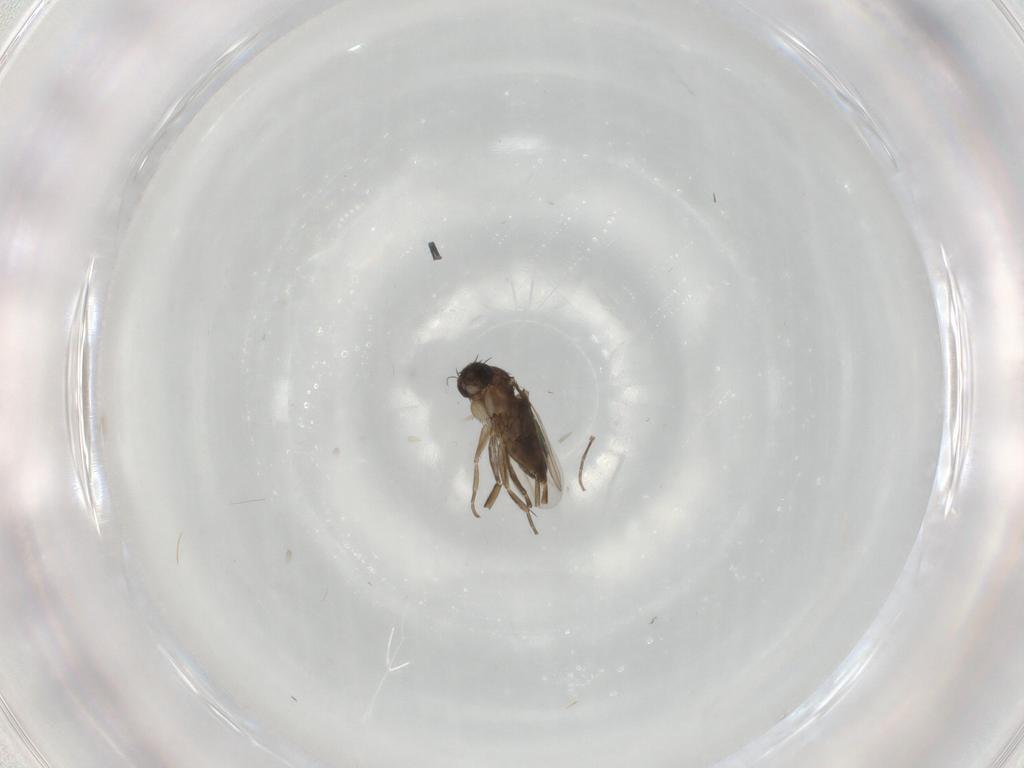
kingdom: Animalia
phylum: Arthropoda
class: Insecta
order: Diptera
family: Phoridae
